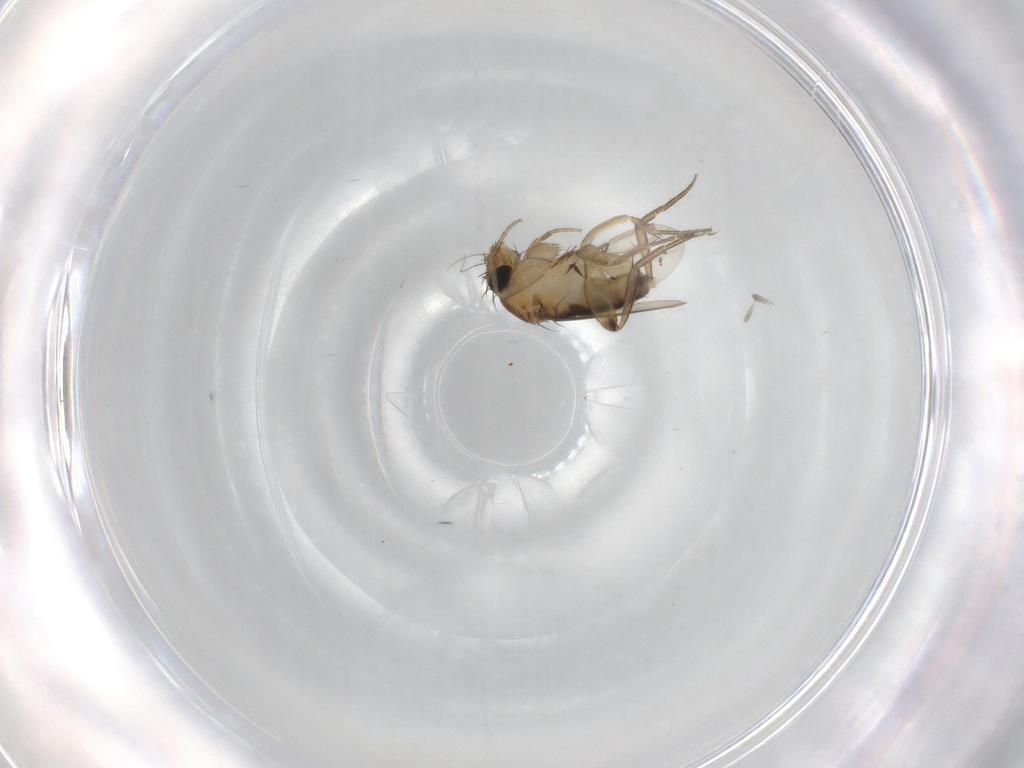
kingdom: Animalia
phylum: Arthropoda
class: Insecta
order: Diptera
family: Phoridae
